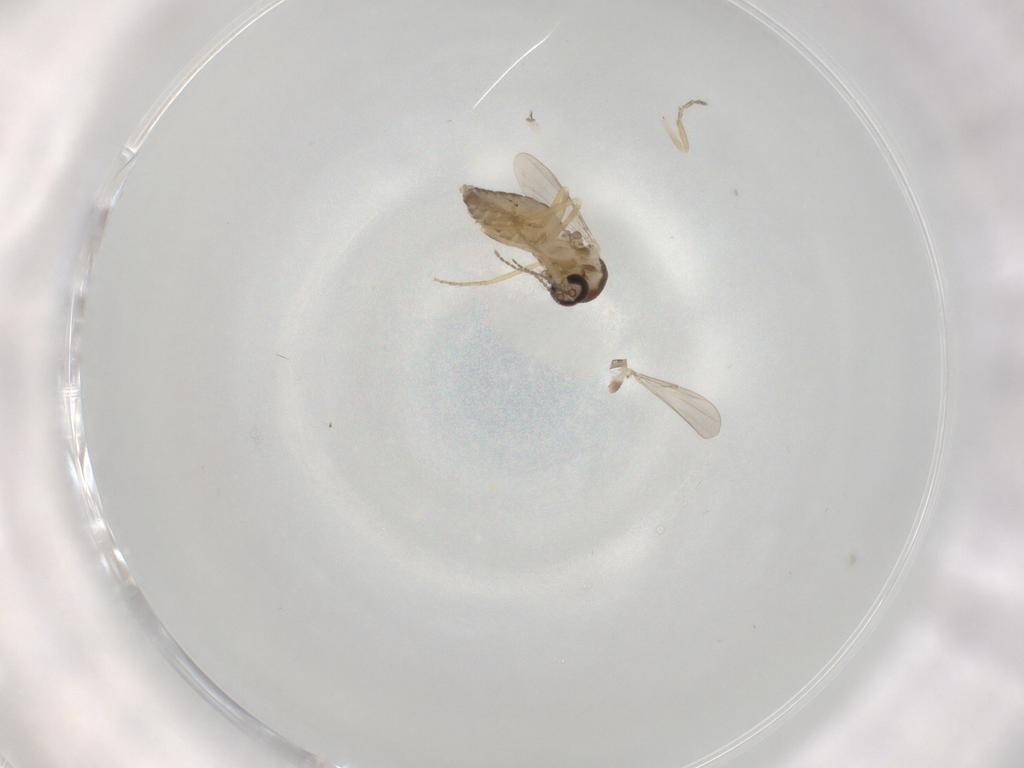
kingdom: Animalia
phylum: Arthropoda
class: Insecta
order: Diptera
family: Ceratopogonidae
